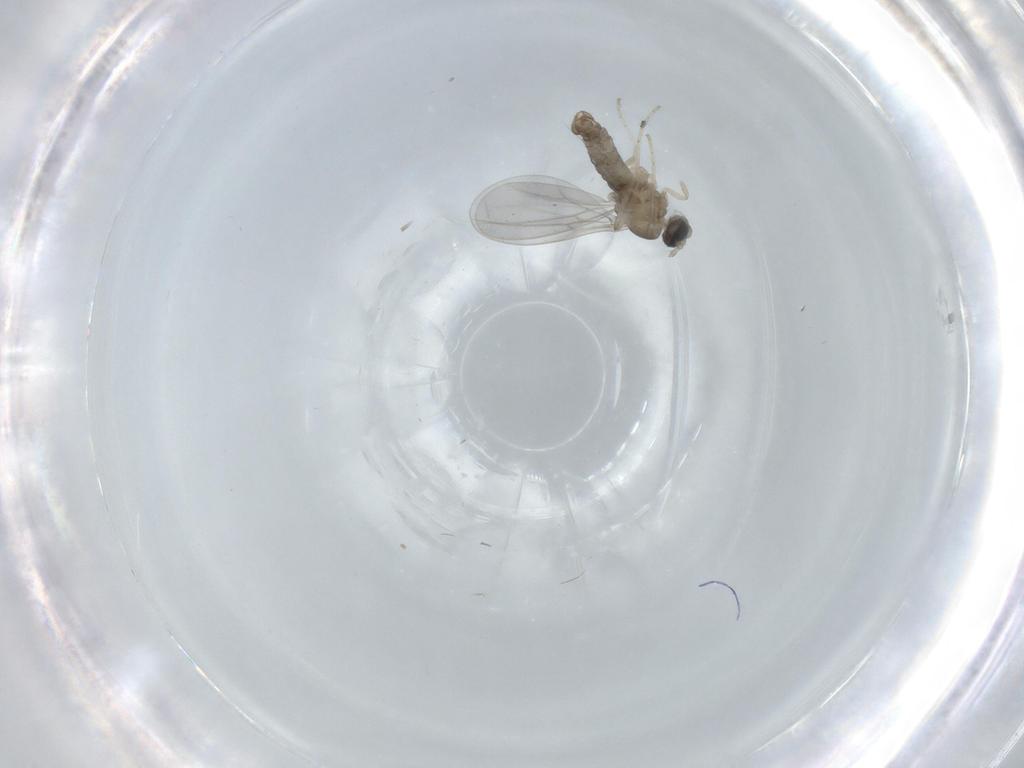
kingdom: Animalia
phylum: Arthropoda
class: Insecta
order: Diptera
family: Cecidomyiidae
